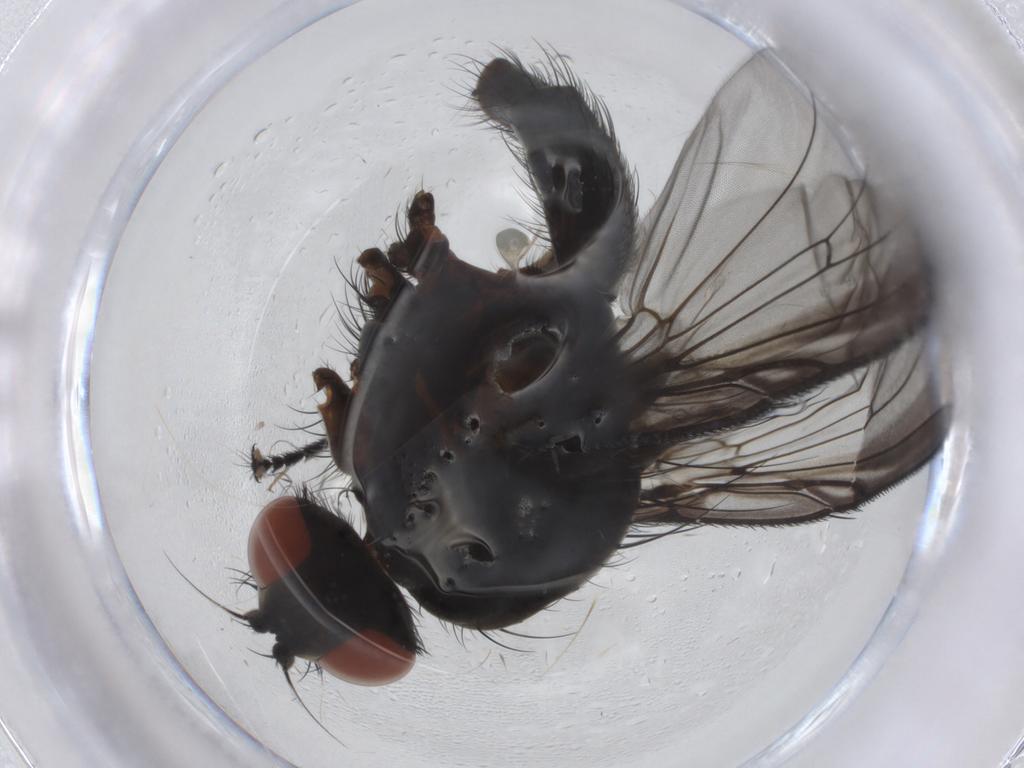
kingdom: Animalia
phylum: Arthropoda
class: Insecta
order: Diptera
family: Anthomyiidae
